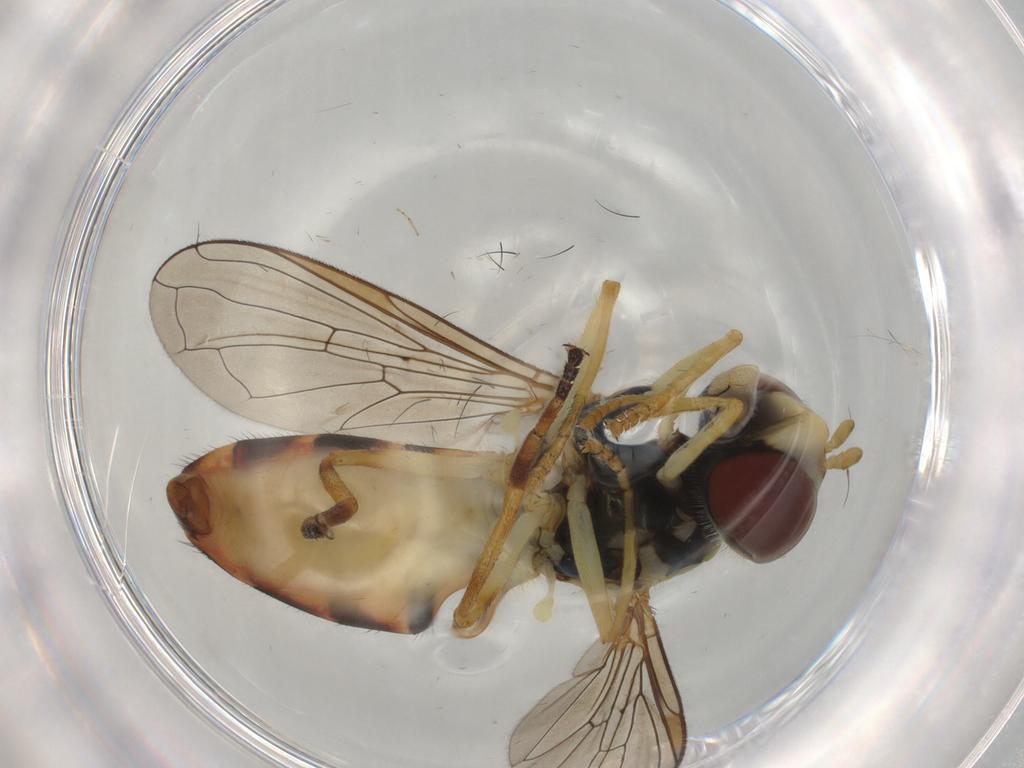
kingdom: Animalia
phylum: Arthropoda
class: Insecta
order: Diptera
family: Syrphidae
